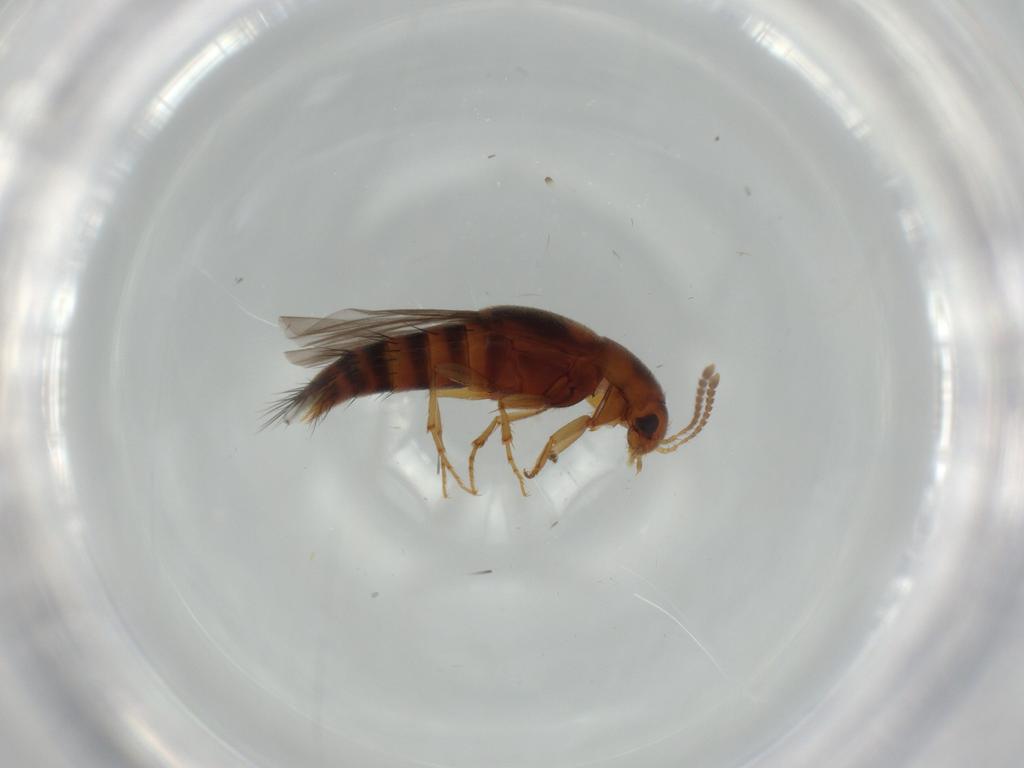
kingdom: Animalia
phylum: Arthropoda
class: Insecta
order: Coleoptera
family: Staphylinidae
